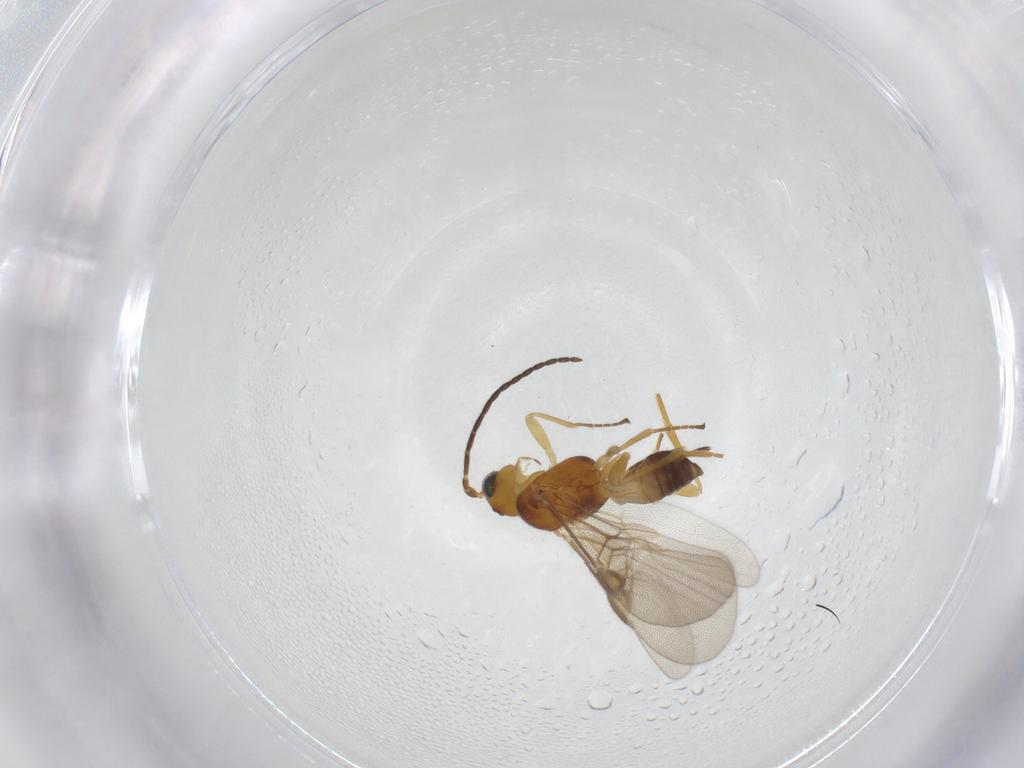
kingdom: Animalia
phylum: Arthropoda
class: Insecta
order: Hymenoptera
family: Braconidae
